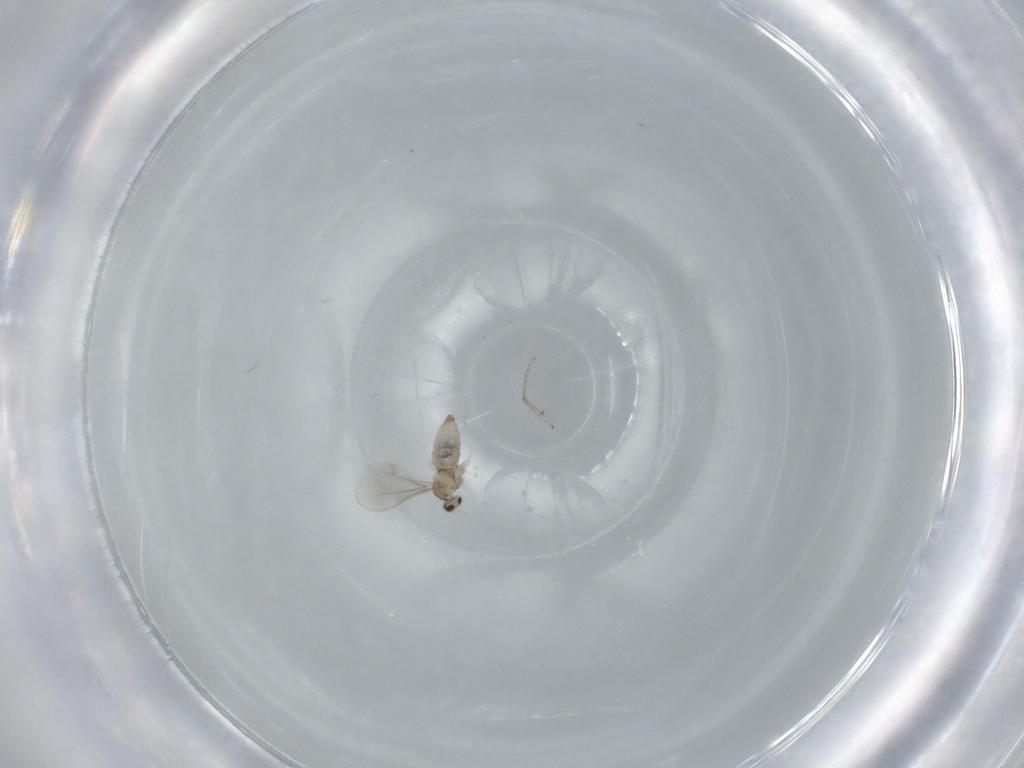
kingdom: Animalia
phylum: Arthropoda
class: Insecta
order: Diptera
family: Cecidomyiidae
